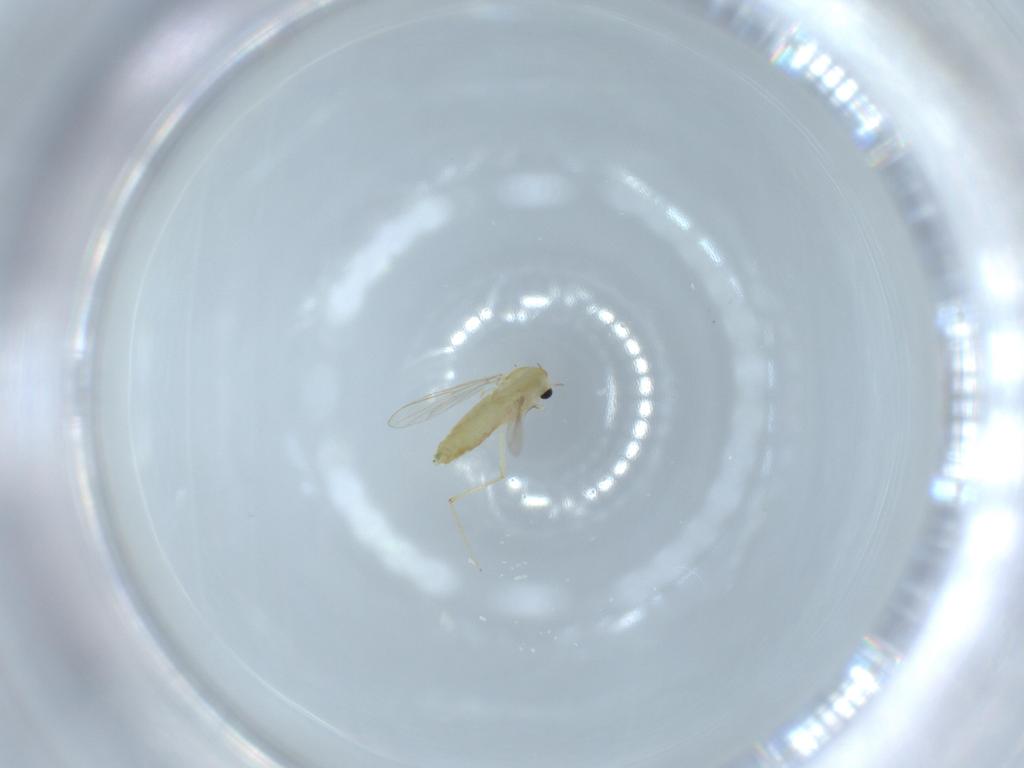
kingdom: Animalia
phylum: Arthropoda
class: Insecta
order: Diptera
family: Chironomidae
